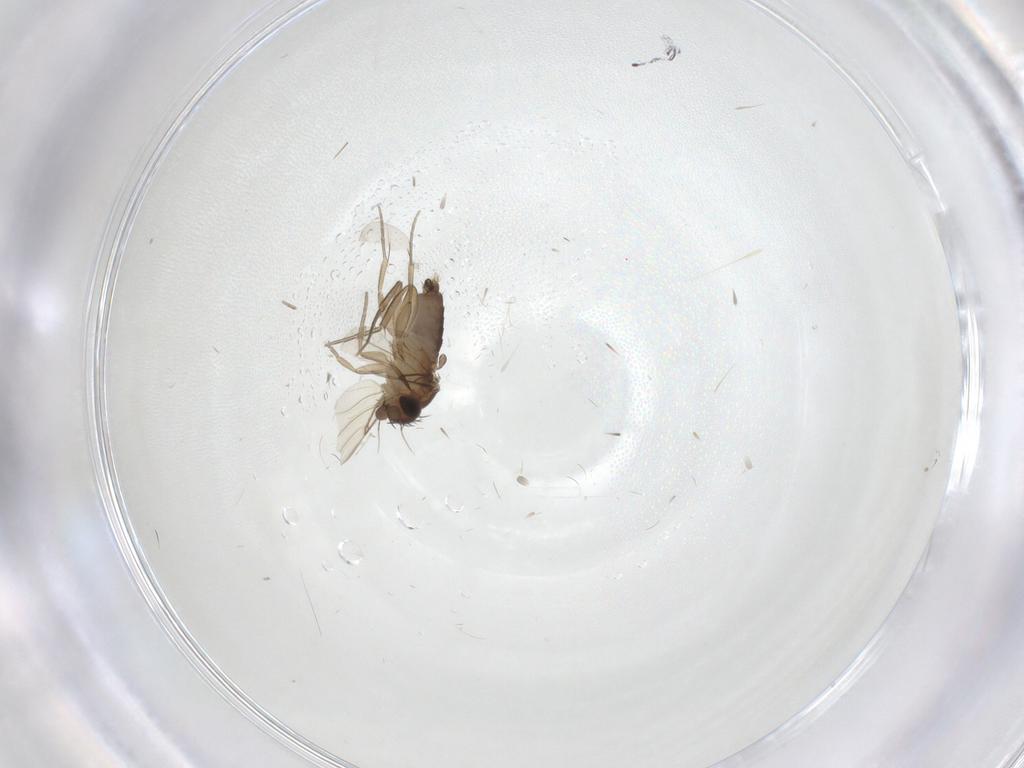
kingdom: Animalia
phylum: Arthropoda
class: Insecta
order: Diptera
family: Phoridae
